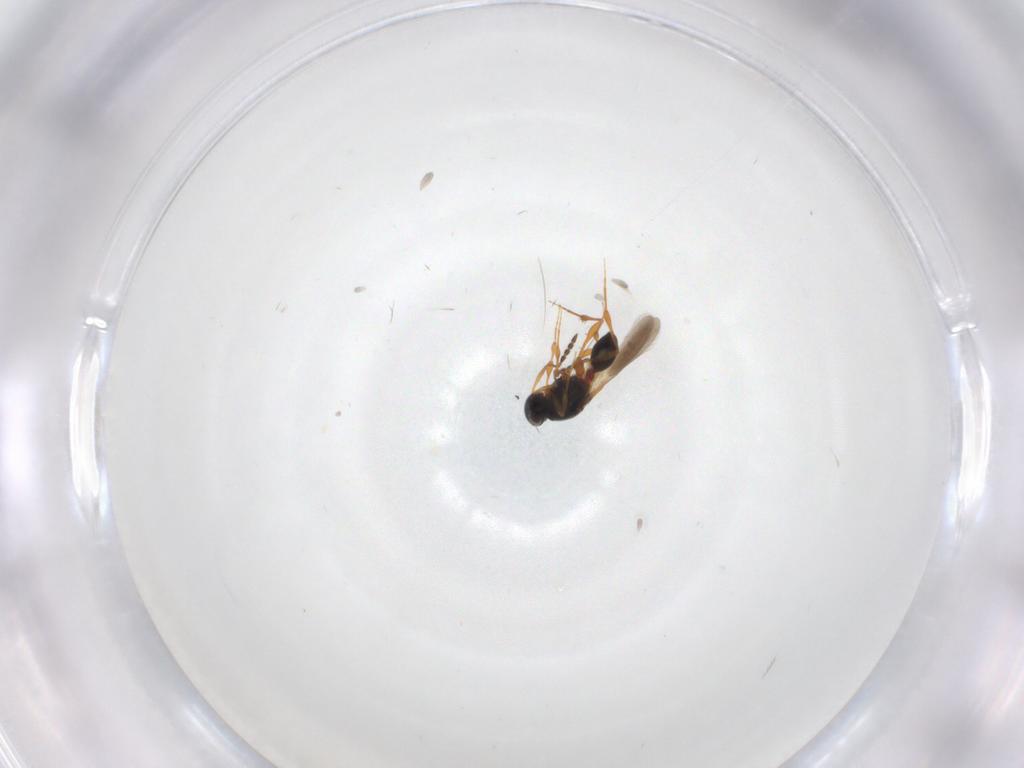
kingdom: Animalia
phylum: Arthropoda
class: Insecta
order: Hymenoptera
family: Platygastridae
